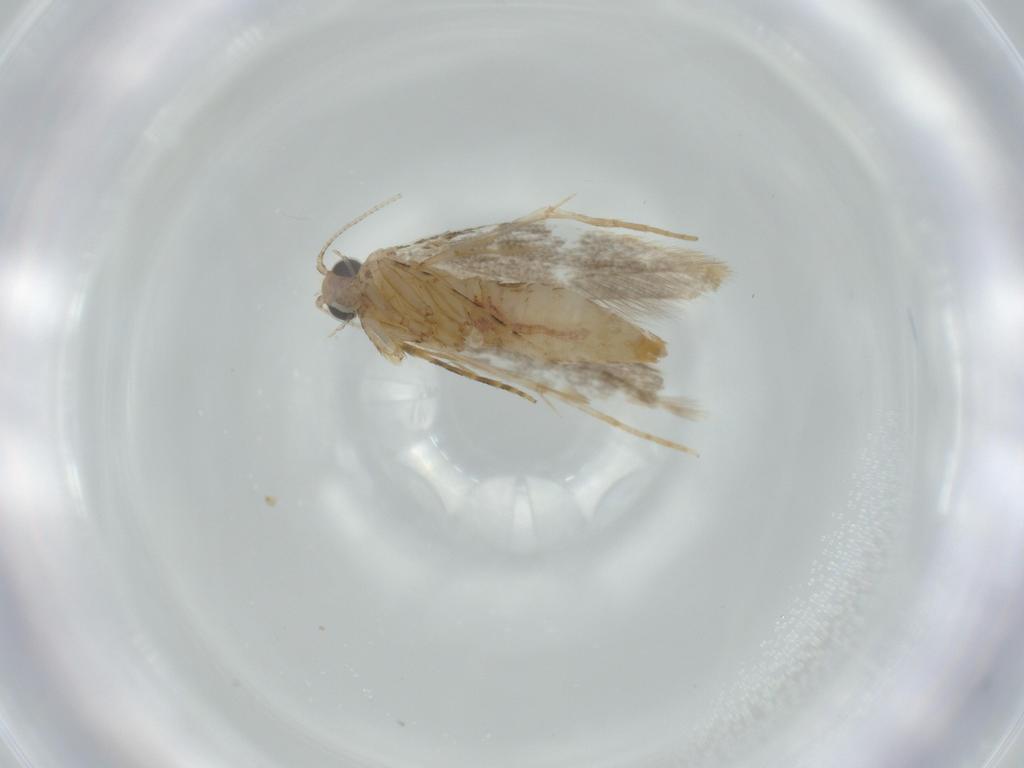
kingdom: Animalia
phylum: Arthropoda
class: Insecta
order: Lepidoptera
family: Tineidae
